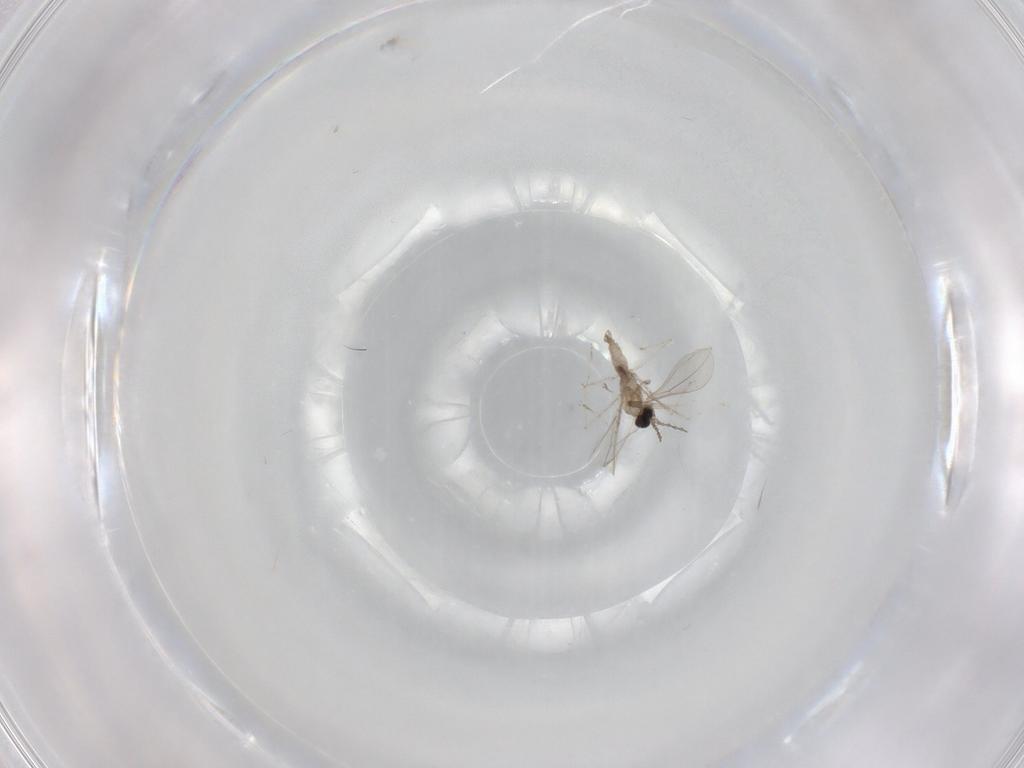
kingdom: Animalia
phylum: Arthropoda
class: Insecta
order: Diptera
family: Cecidomyiidae
